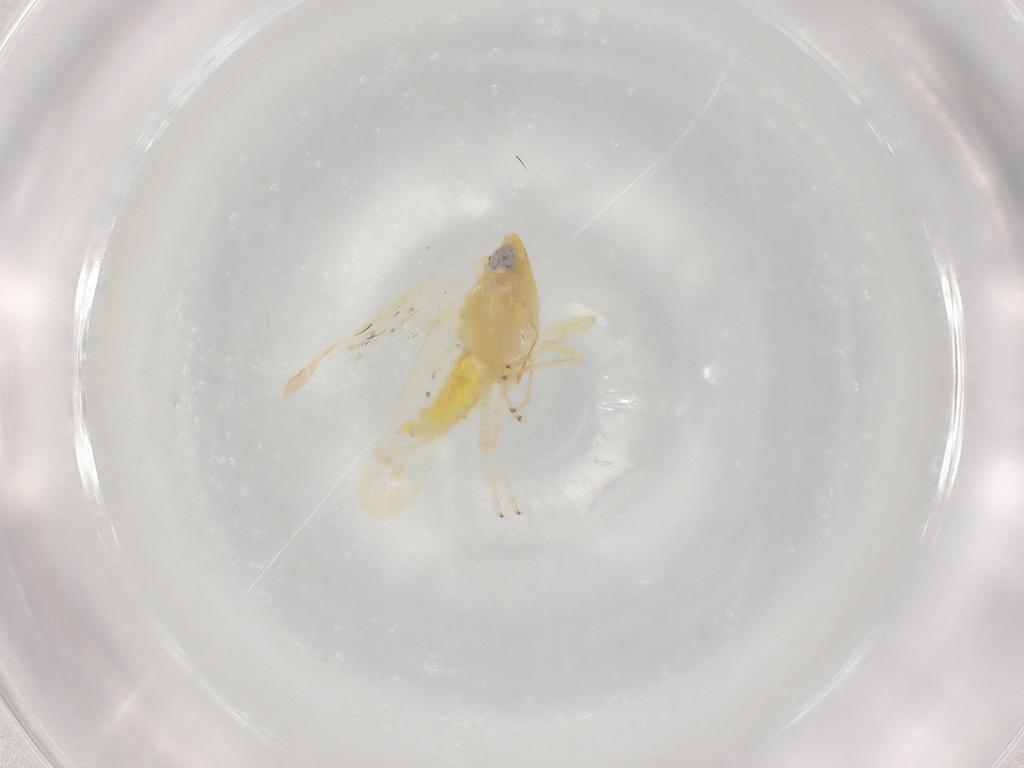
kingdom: Animalia
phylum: Arthropoda
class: Insecta
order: Hemiptera
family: Cicadellidae
